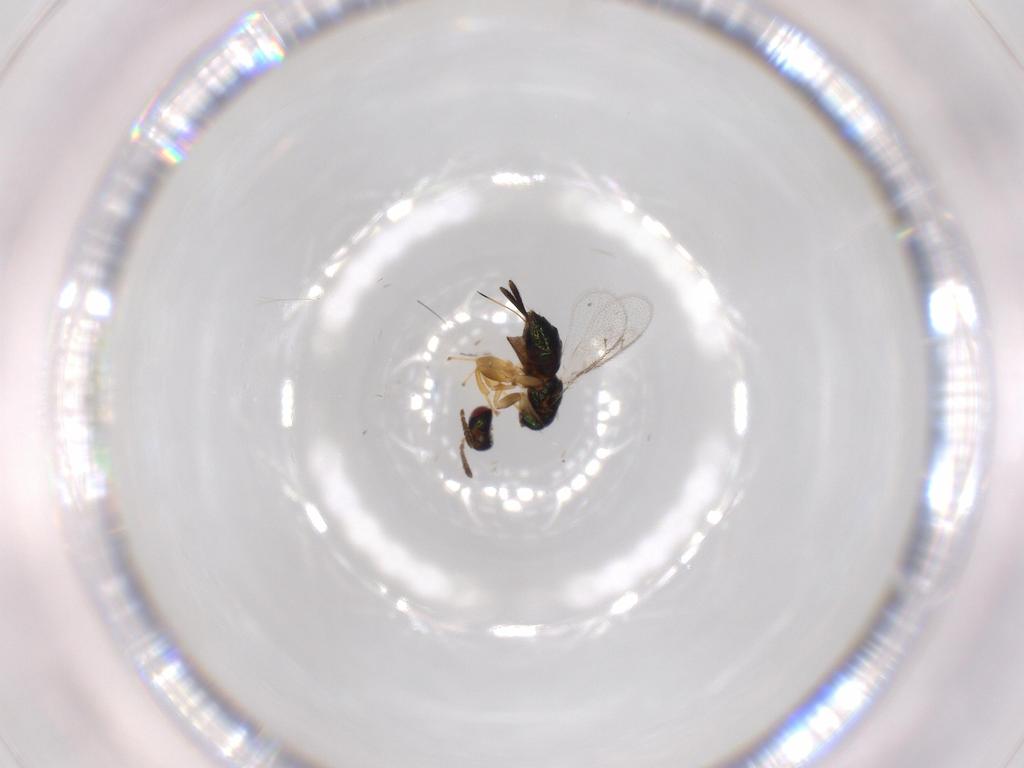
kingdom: Animalia
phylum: Arthropoda
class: Insecta
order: Hymenoptera
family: Torymidae
